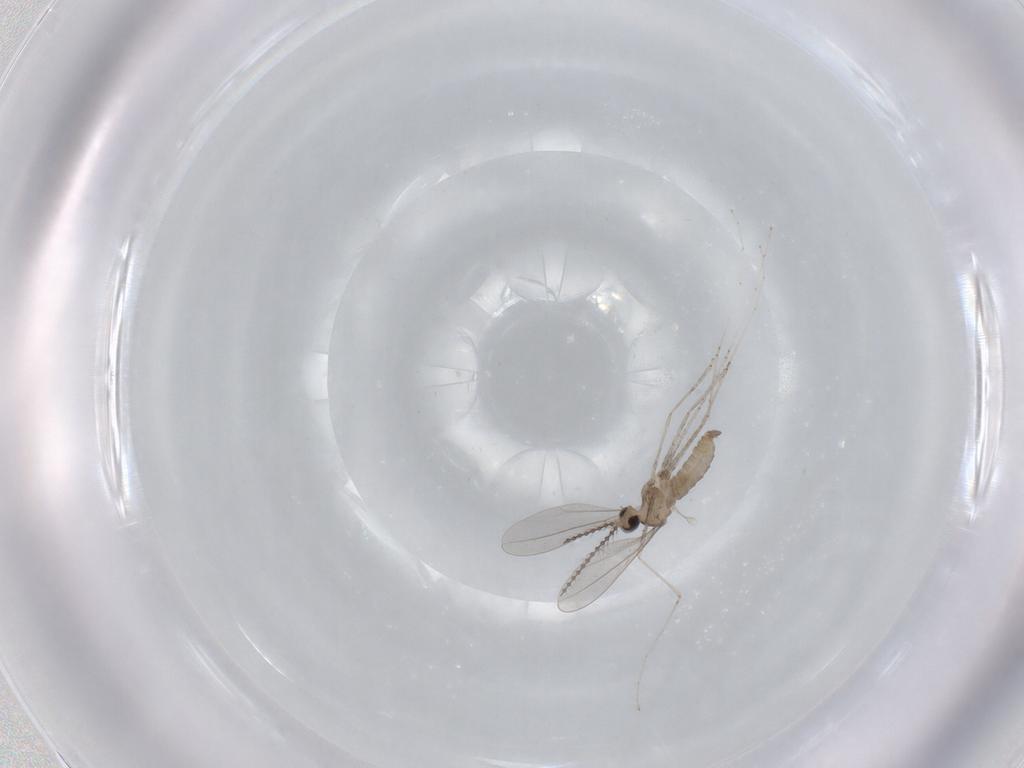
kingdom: Animalia
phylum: Arthropoda
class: Insecta
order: Diptera
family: Cecidomyiidae
